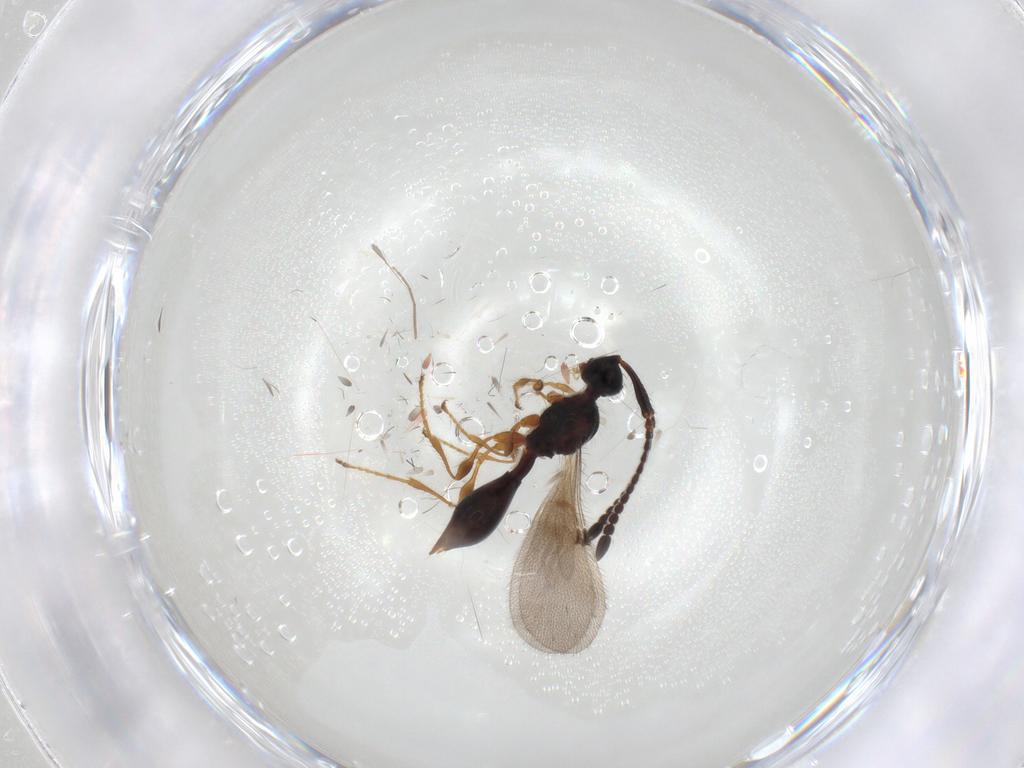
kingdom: Animalia
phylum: Arthropoda
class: Insecta
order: Hymenoptera
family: Diapriidae
